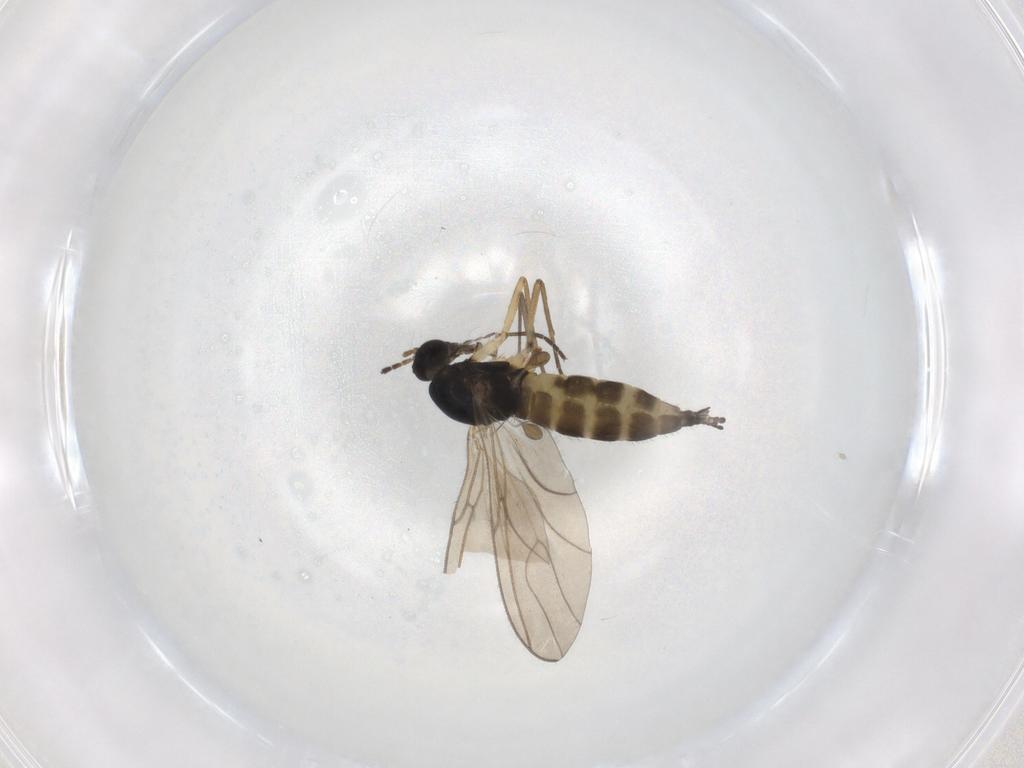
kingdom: Animalia
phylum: Arthropoda
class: Insecta
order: Diptera
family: Sciaridae
